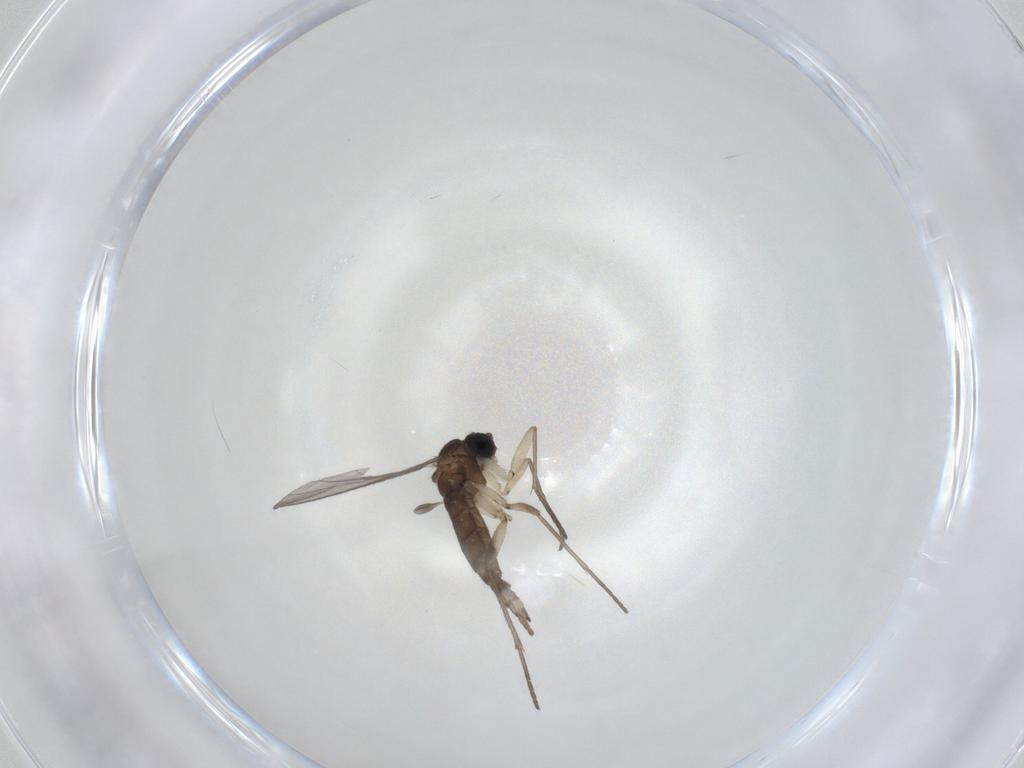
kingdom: Animalia
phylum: Arthropoda
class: Insecta
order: Diptera
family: Sciaridae
